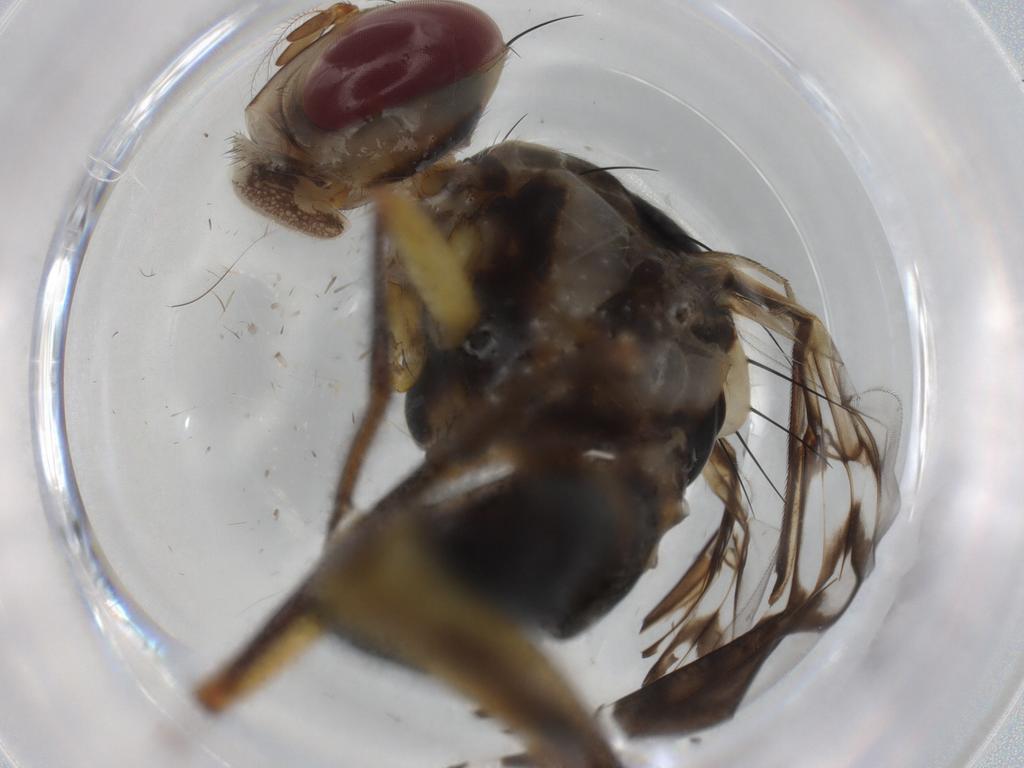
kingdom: Animalia
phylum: Arthropoda
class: Insecta
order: Diptera
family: Tephritidae
